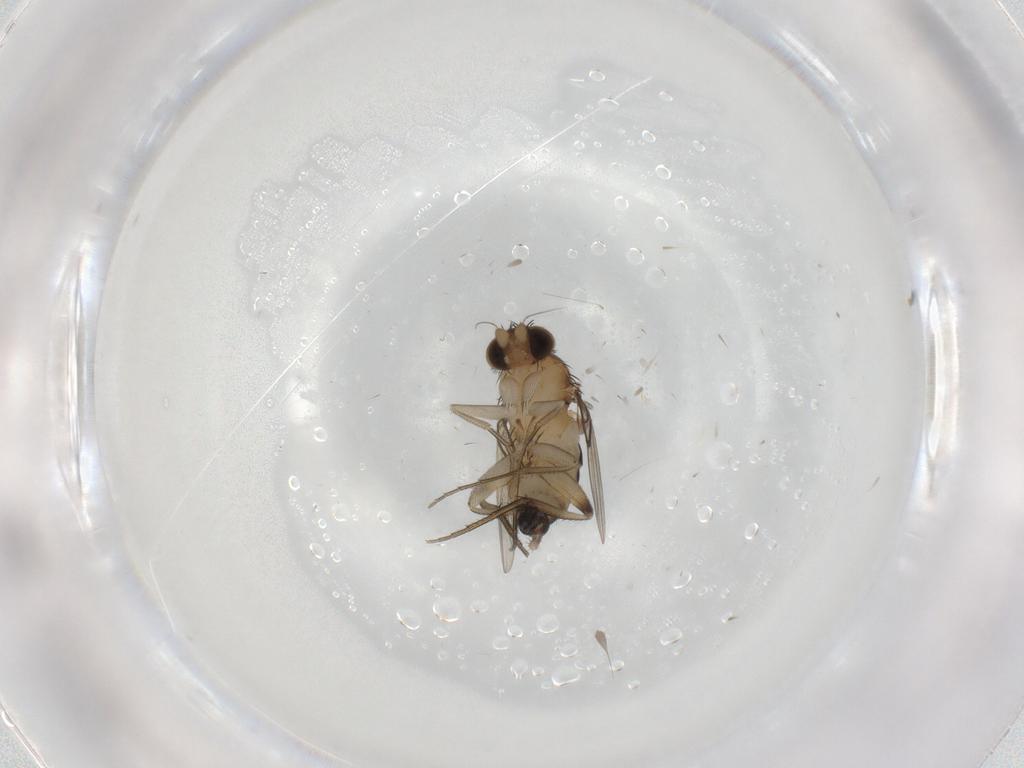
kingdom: Animalia
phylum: Arthropoda
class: Insecta
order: Diptera
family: Phoridae
